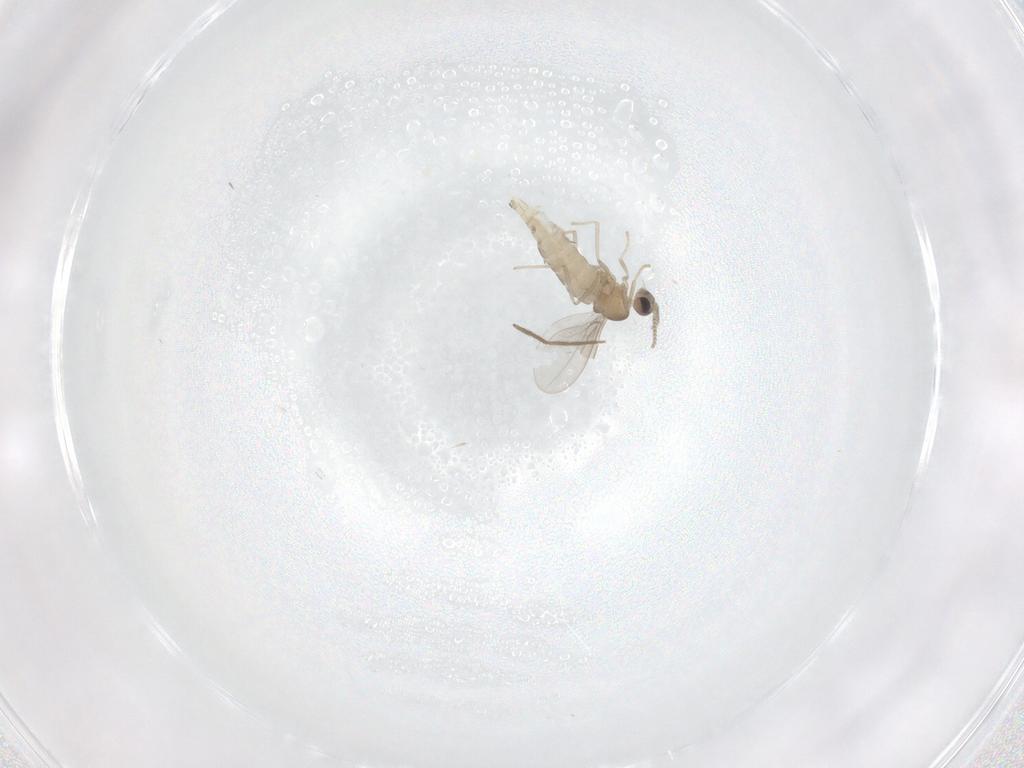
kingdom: Animalia
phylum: Arthropoda
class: Insecta
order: Diptera
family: Cecidomyiidae
